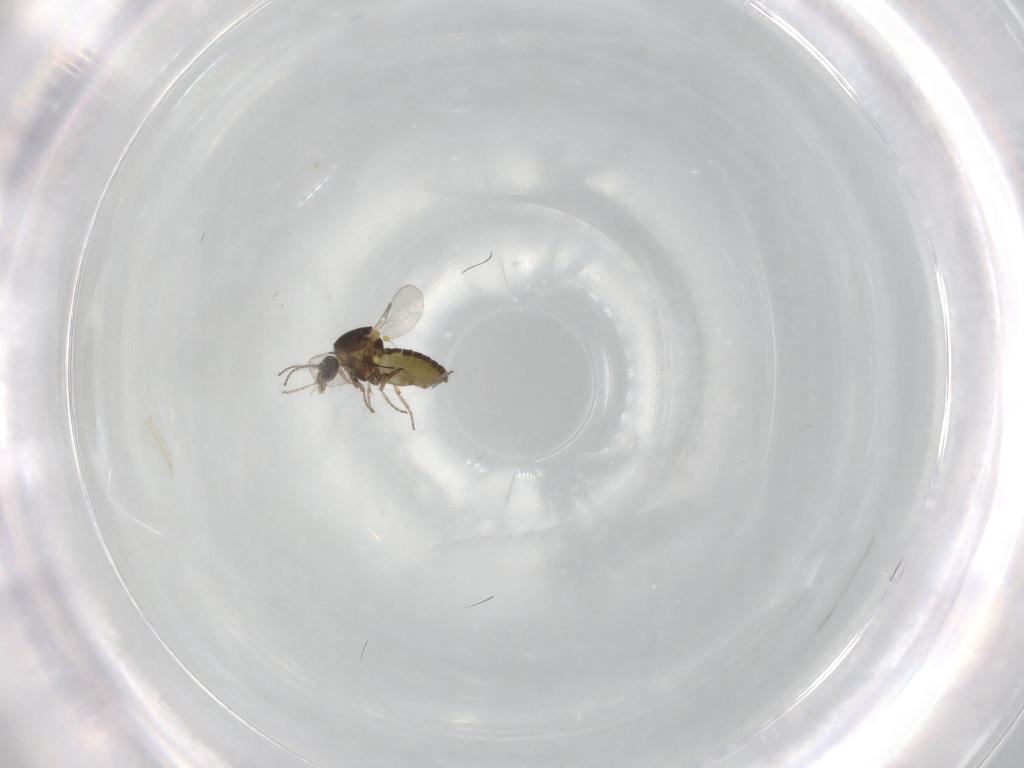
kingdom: Animalia
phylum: Arthropoda
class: Insecta
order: Diptera
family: Ceratopogonidae
